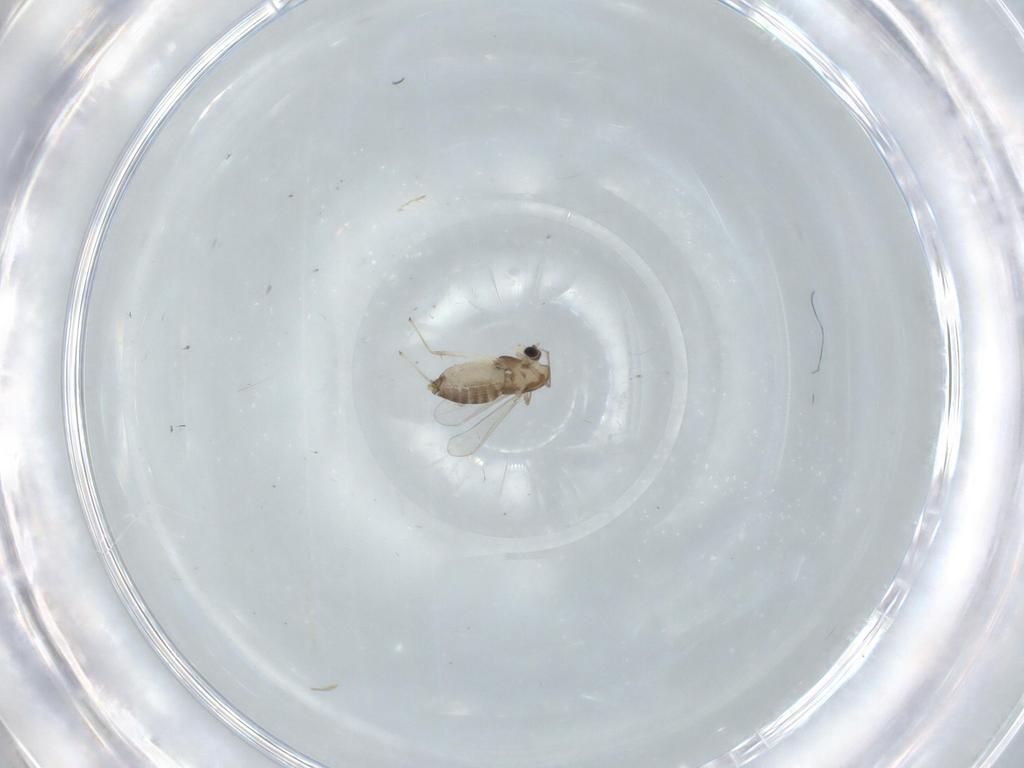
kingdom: Animalia
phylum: Arthropoda
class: Insecta
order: Diptera
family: Chironomidae
